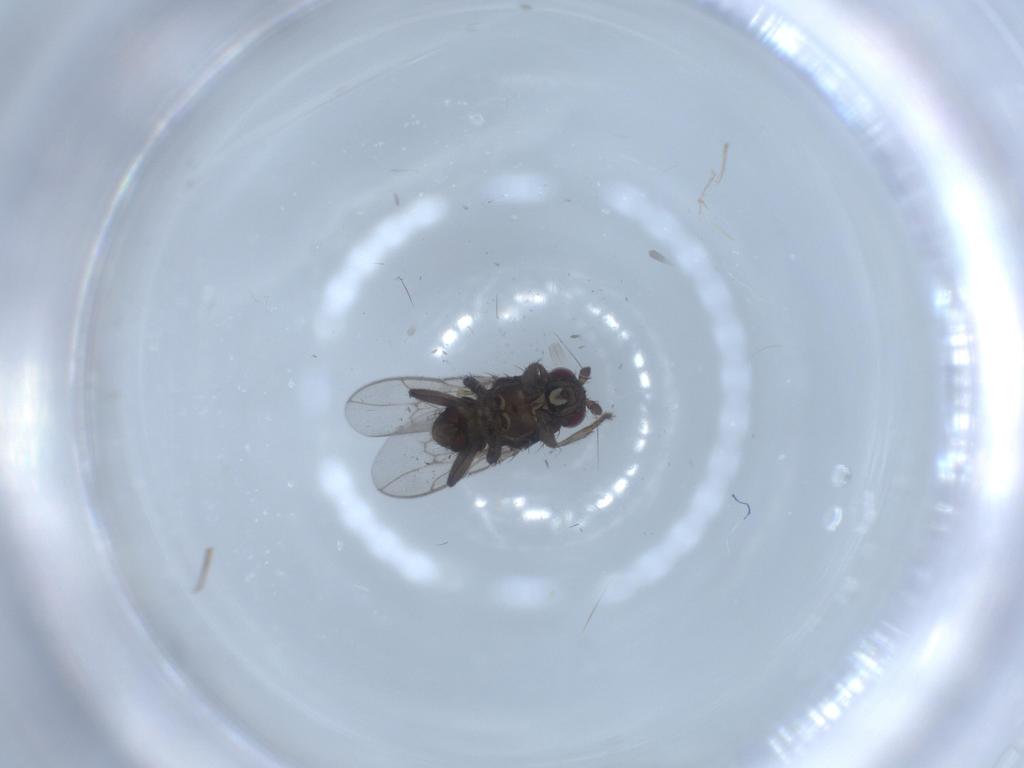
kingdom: Animalia
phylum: Arthropoda
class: Insecta
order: Diptera
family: Sphaeroceridae
